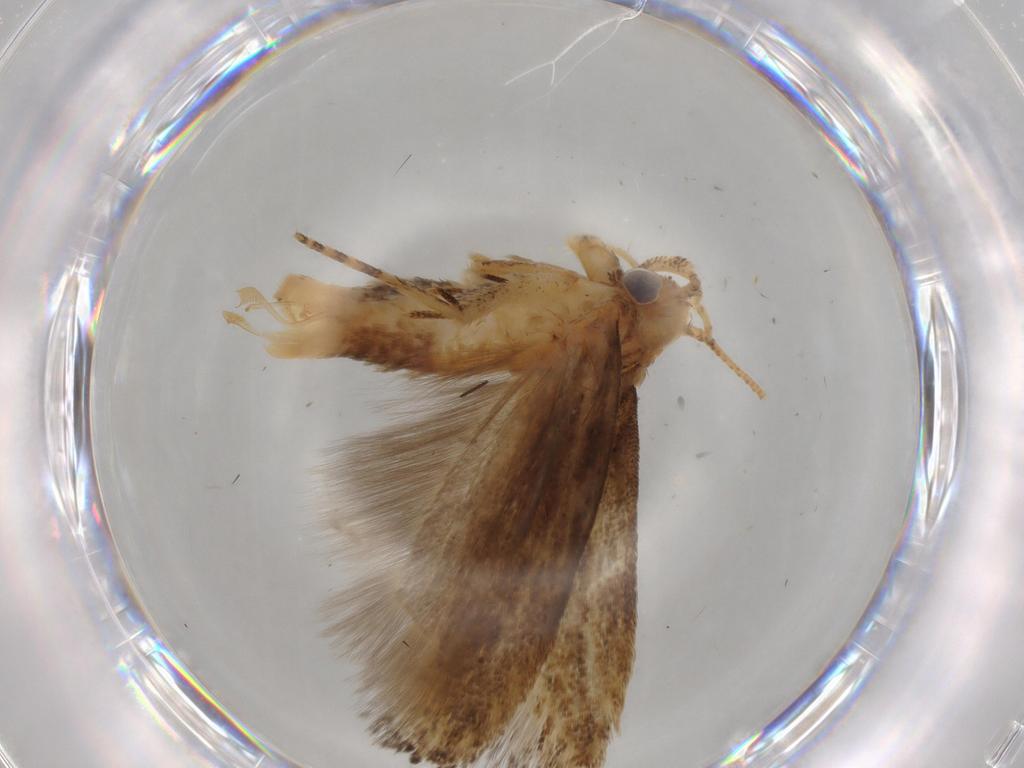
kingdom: Animalia
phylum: Arthropoda
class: Insecta
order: Lepidoptera
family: Gelechiidae
